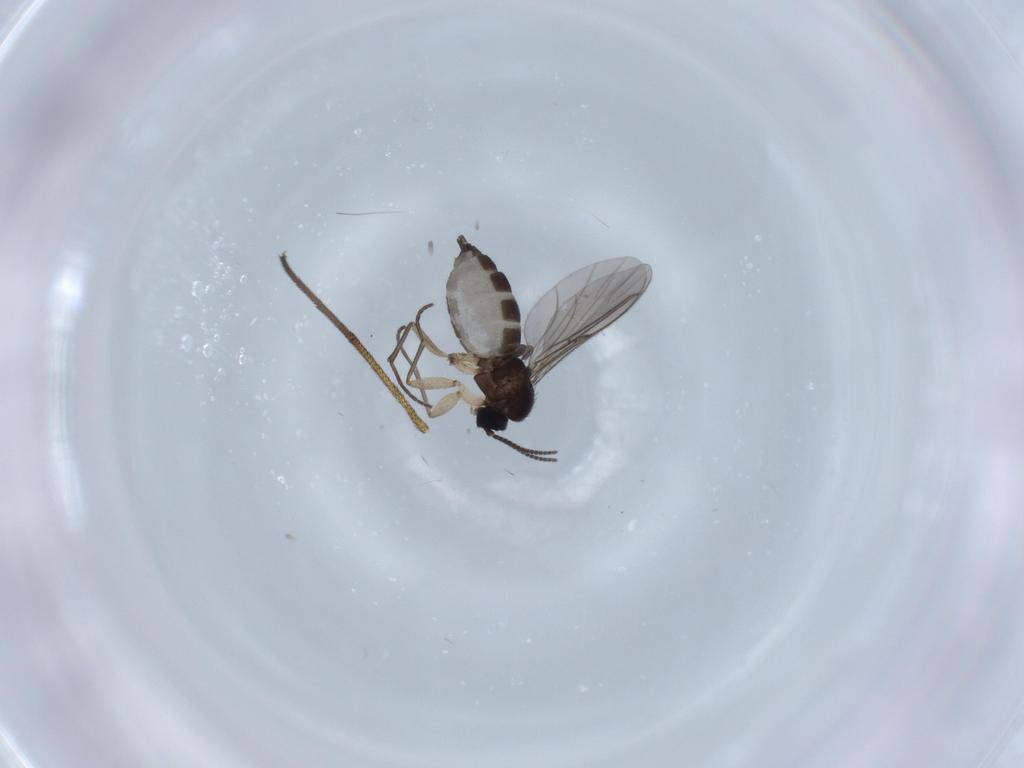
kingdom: Animalia
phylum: Arthropoda
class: Insecta
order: Diptera
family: Sciaridae
